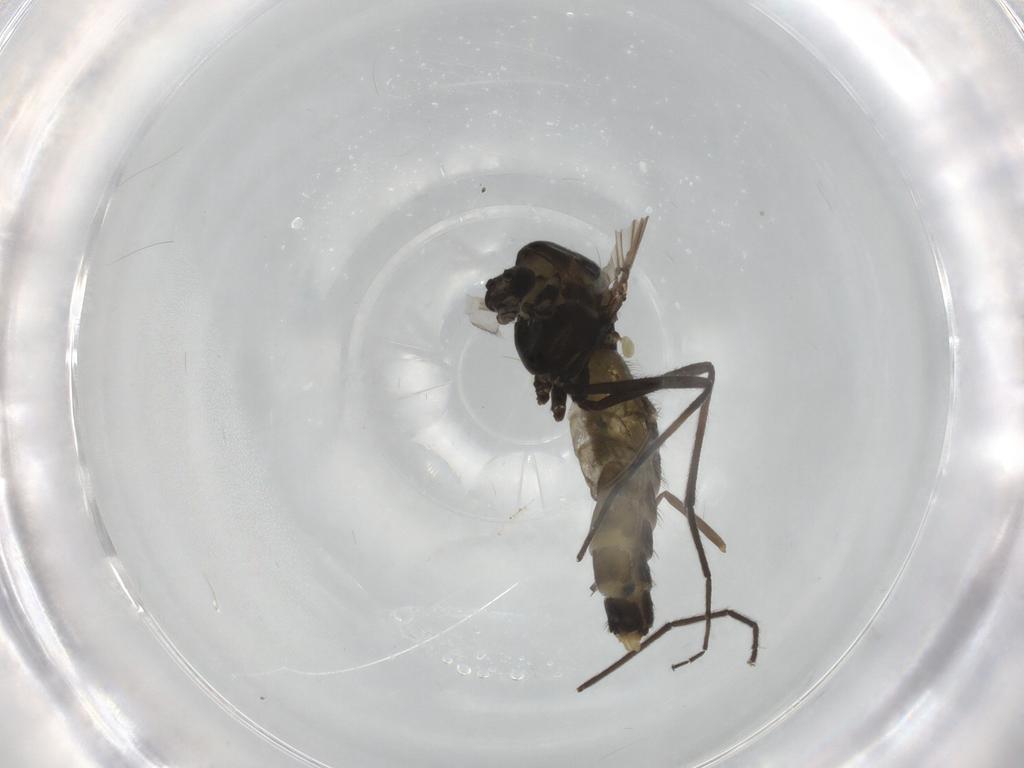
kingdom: Animalia
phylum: Arthropoda
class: Insecta
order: Diptera
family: Chironomidae
